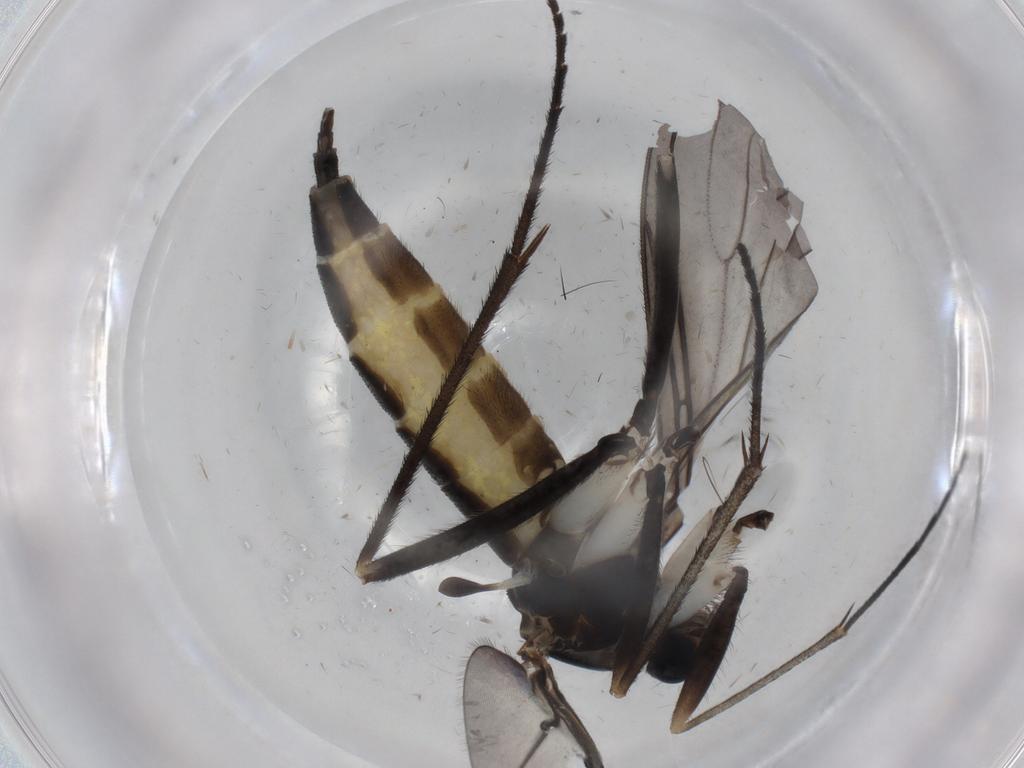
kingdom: Animalia
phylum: Arthropoda
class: Insecta
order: Diptera
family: Sciaridae
